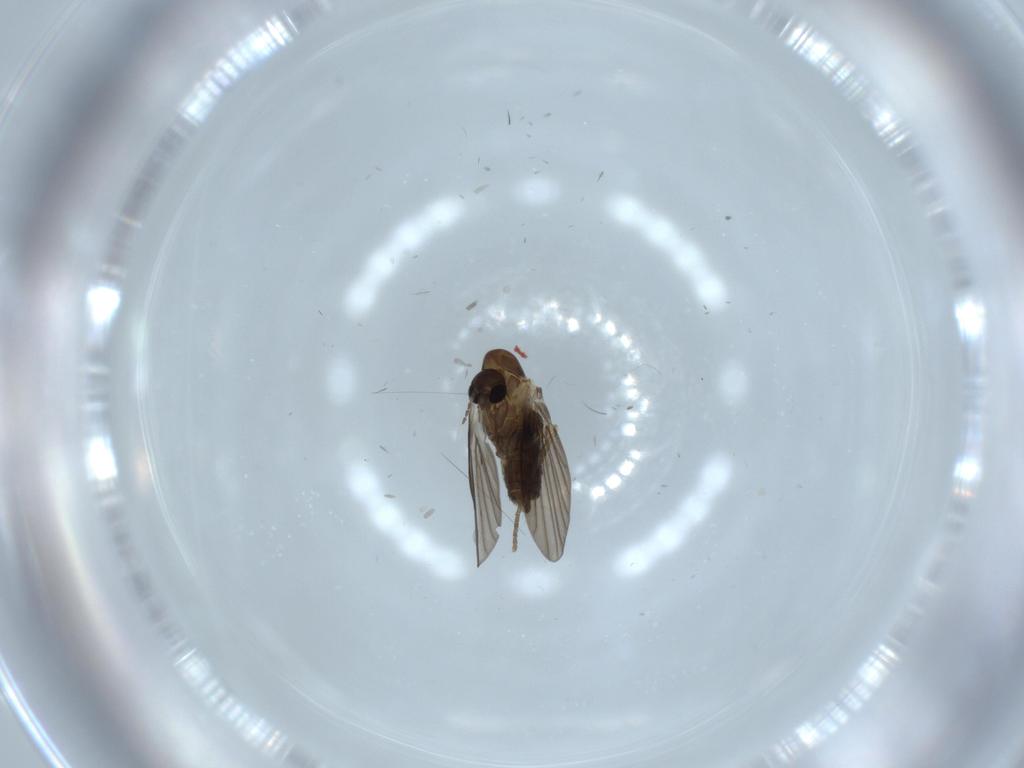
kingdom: Animalia
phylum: Arthropoda
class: Insecta
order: Diptera
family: Psychodidae
